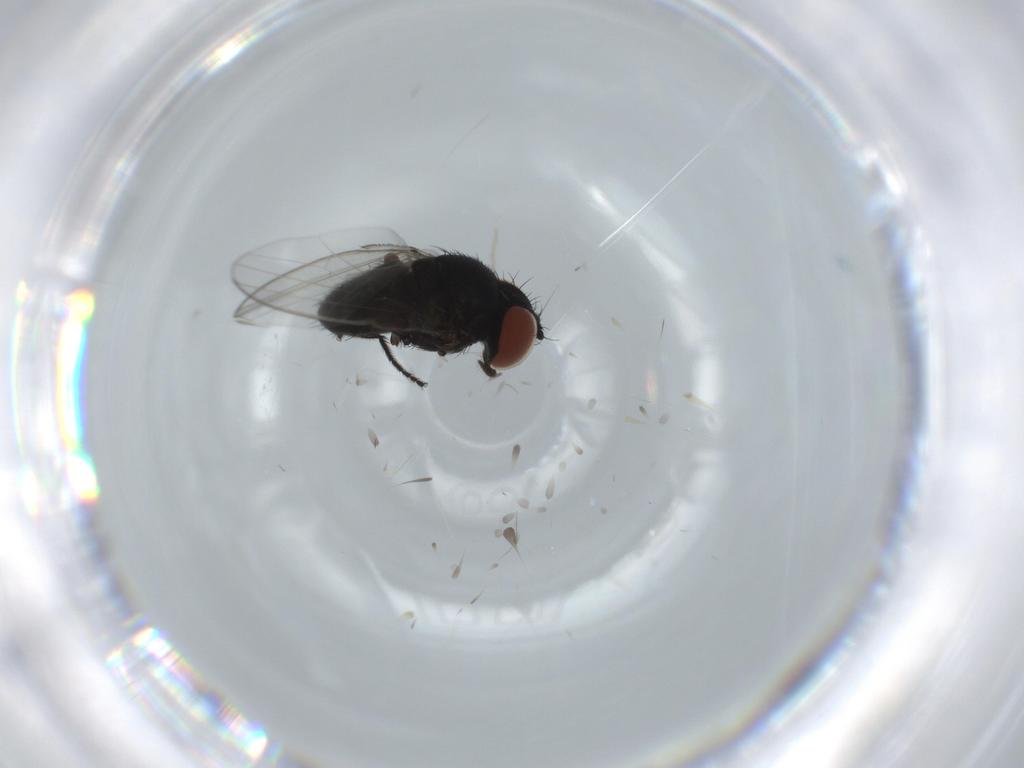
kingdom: Animalia
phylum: Arthropoda
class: Insecta
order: Diptera
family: Milichiidae
